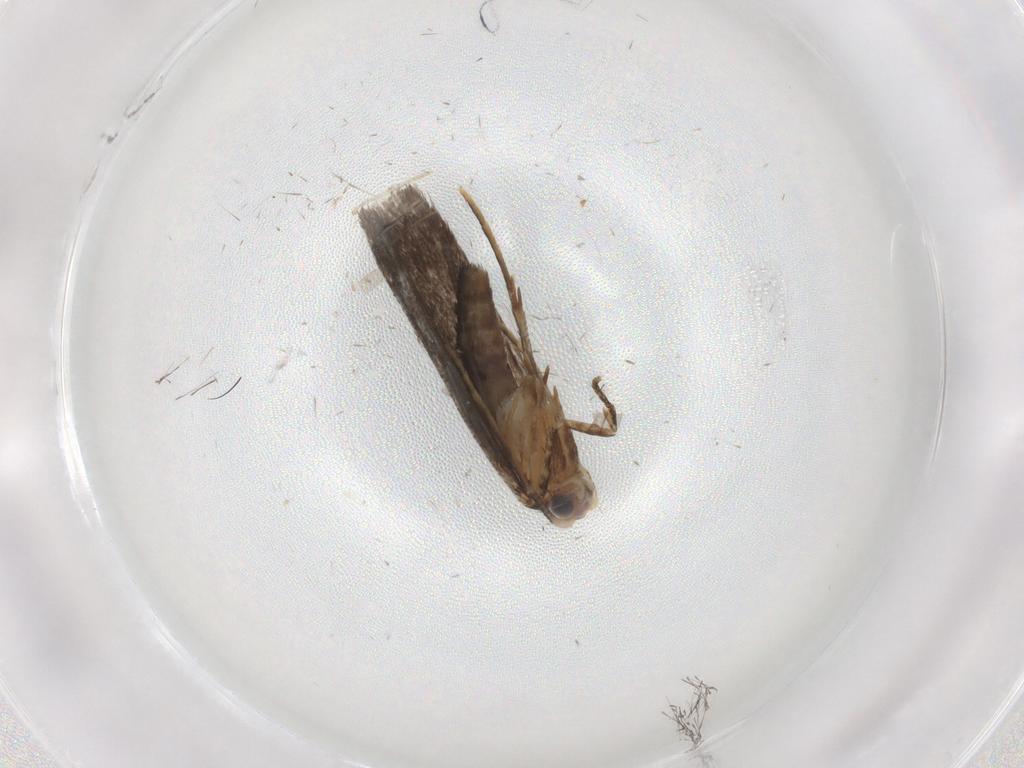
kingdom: Animalia
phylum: Arthropoda
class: Insecta
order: Lepidoptera
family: Nepticulidae
